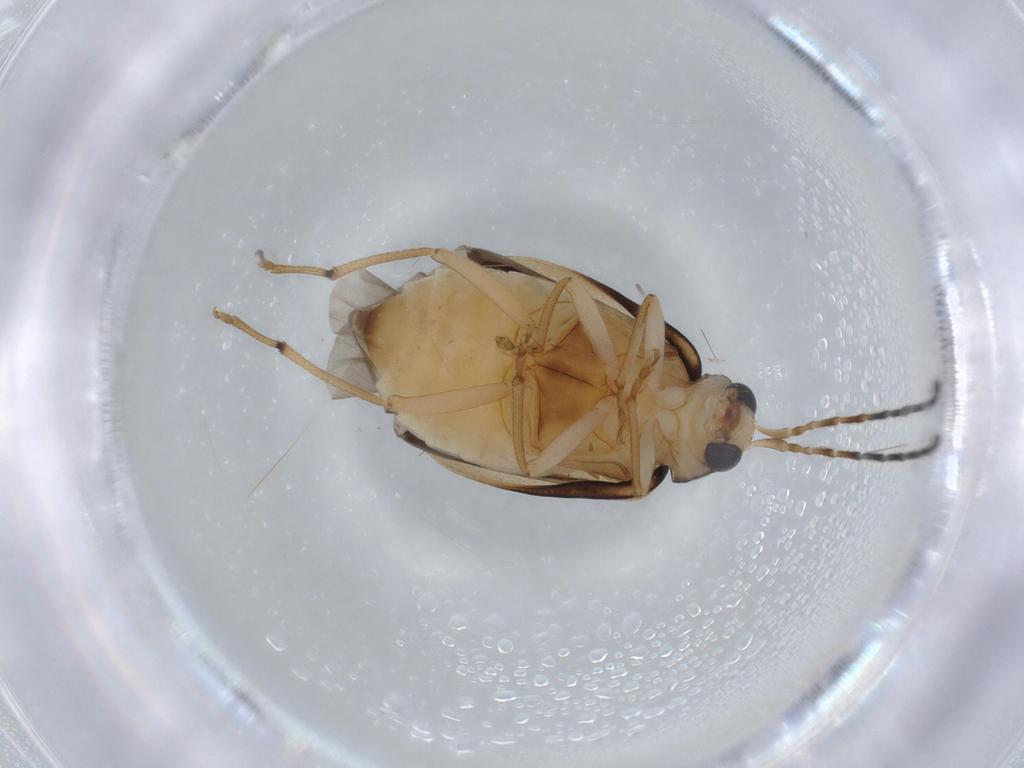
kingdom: Animalia
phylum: Arthropoda
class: Insecta
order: Coleoptera
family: Chrysomelidae
